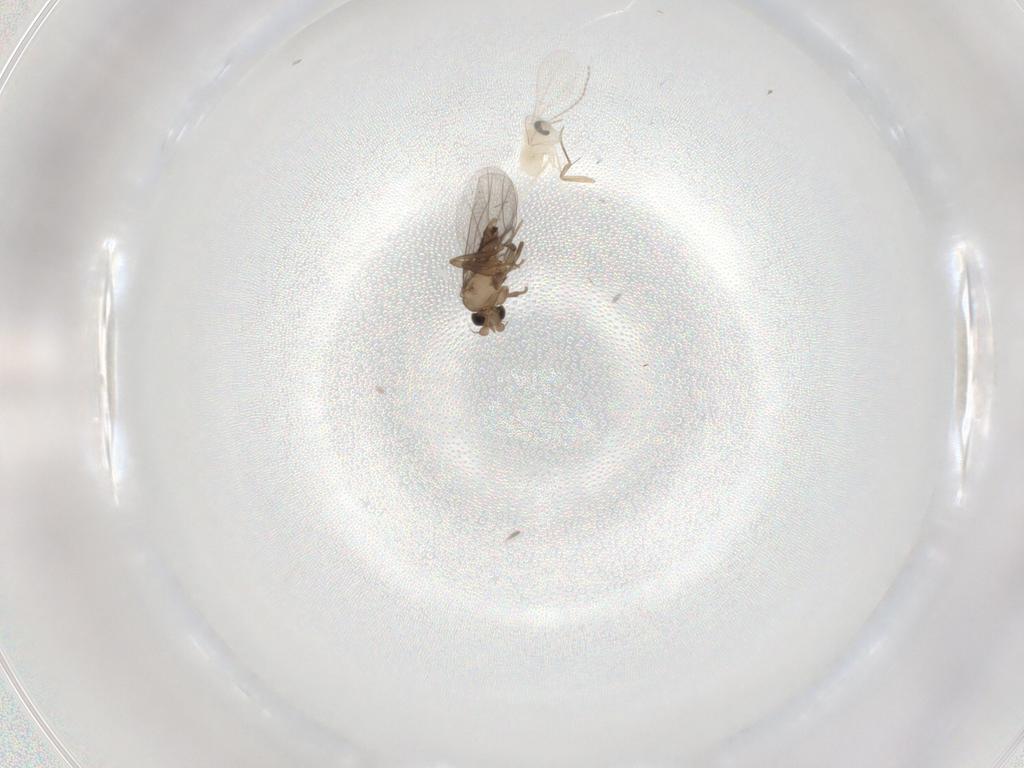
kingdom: Animalia
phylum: Arthropoda
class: Insecta
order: Diptera
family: Cecidomyiidae
